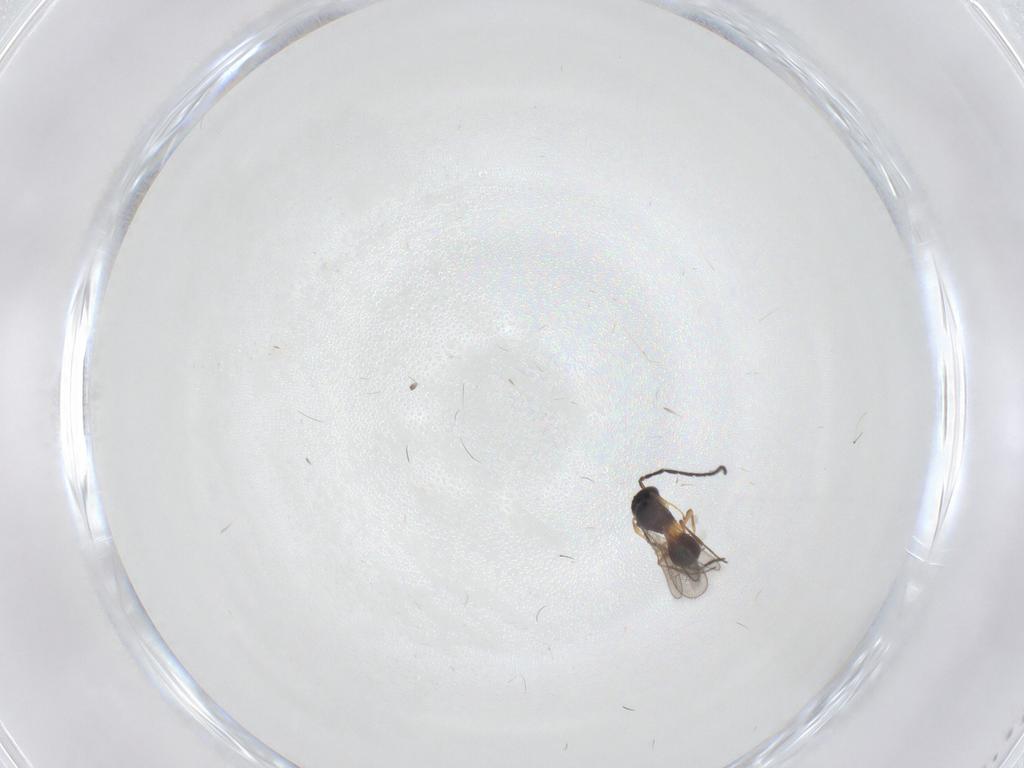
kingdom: Animalia
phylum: Arthropoda
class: Insecta
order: Hymenoptera
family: Scelionidae
